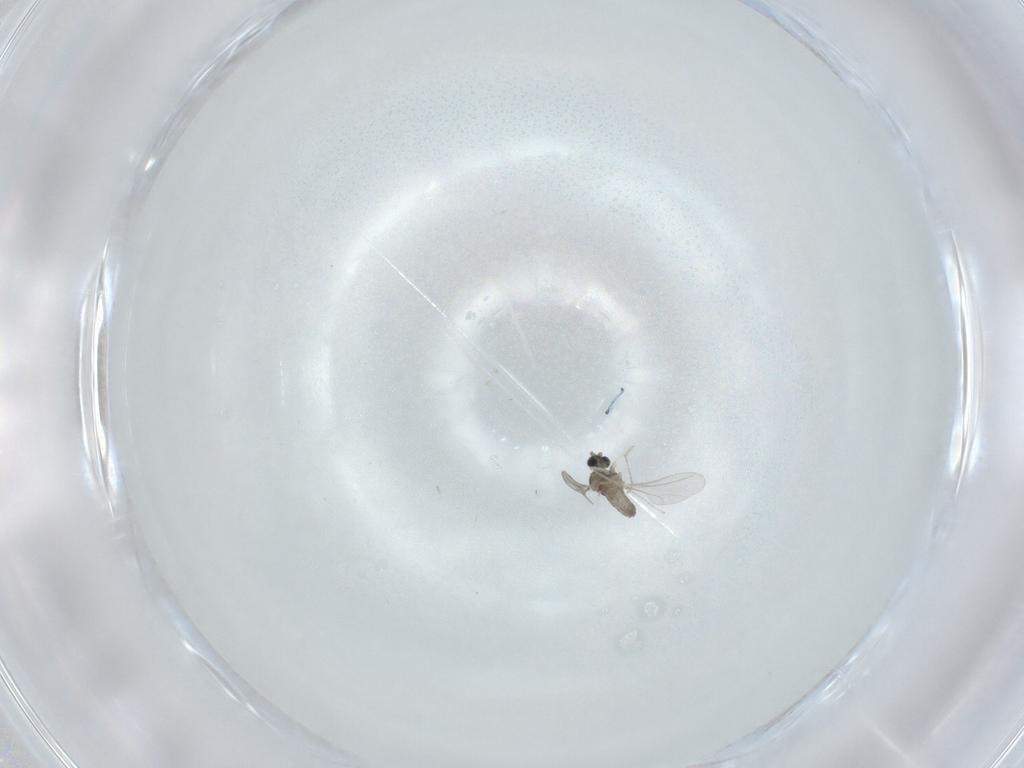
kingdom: Animalia
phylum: Arthropoda
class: Insecta
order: Diptera
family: Cecidomyiidae
